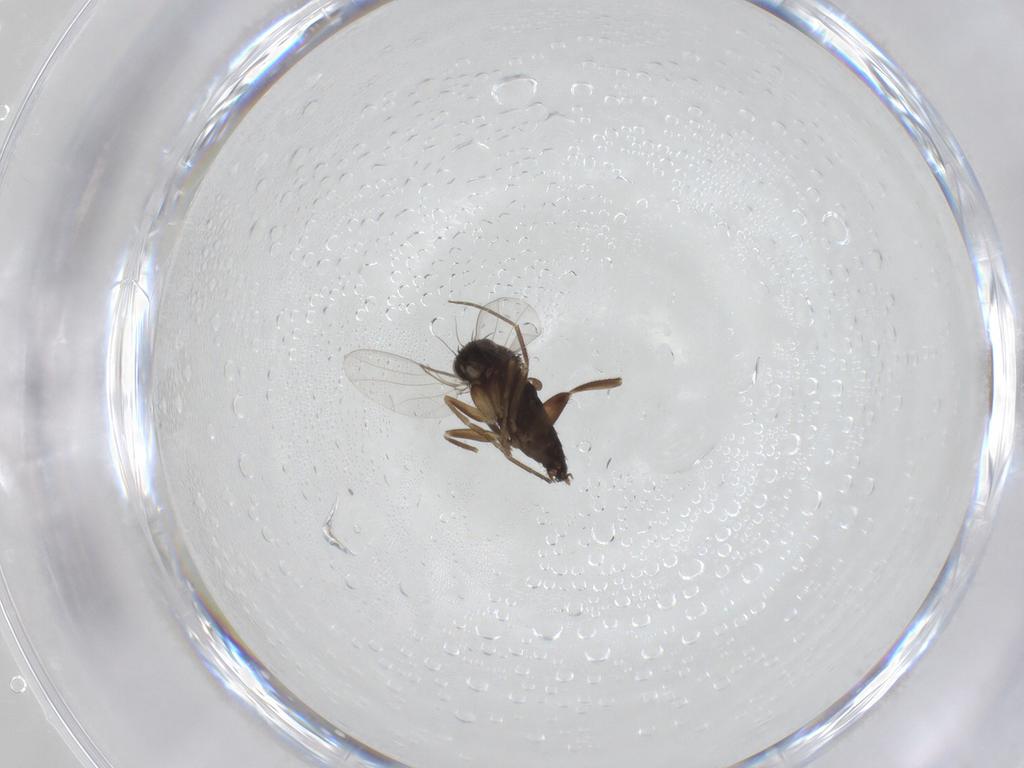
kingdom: Animalia
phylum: Arthropoda
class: Insecta
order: Diptera
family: Phoridae
